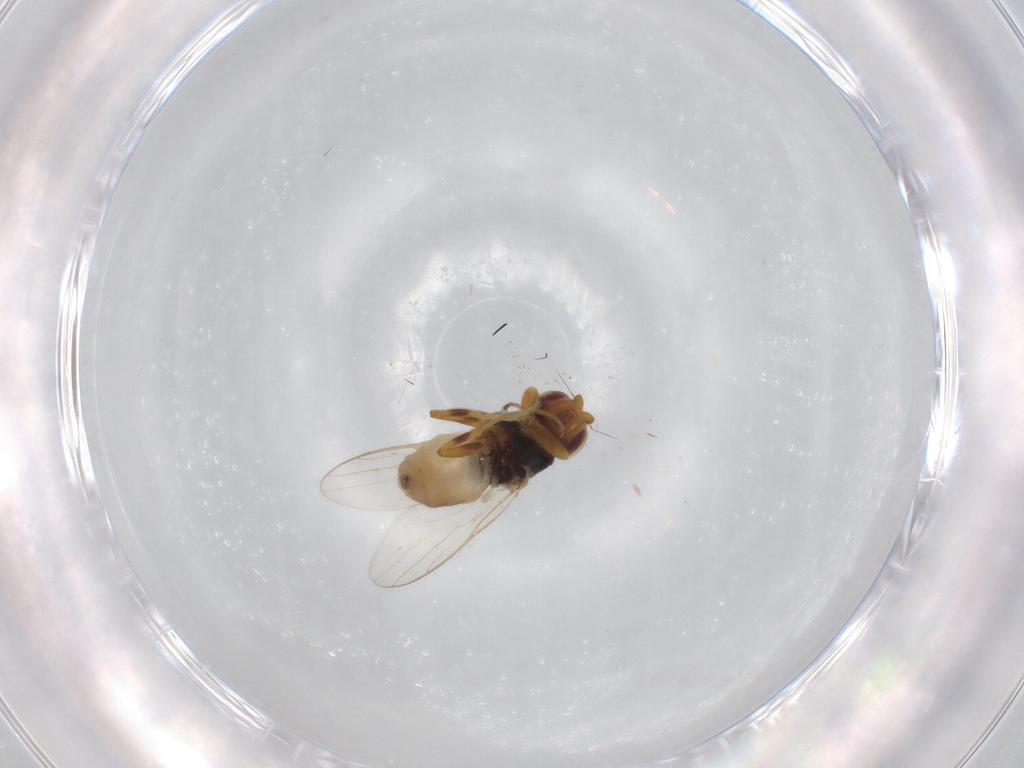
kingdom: Animalia
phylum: Arthropoda
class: Insecta
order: Diptera
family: Chloropidae
